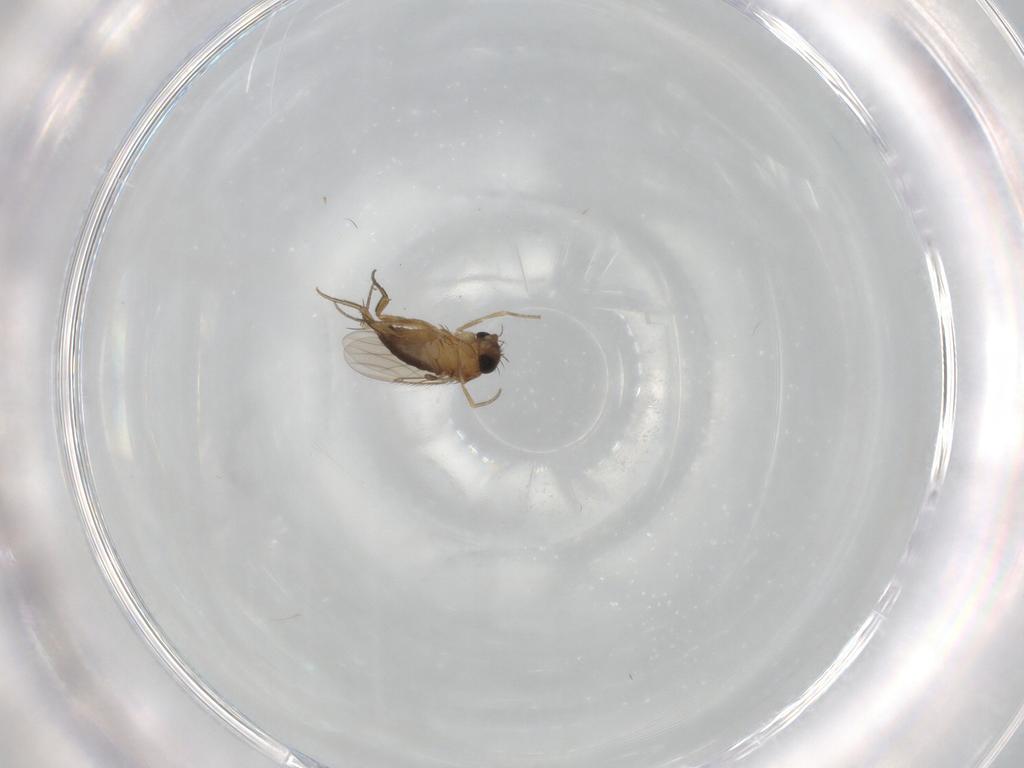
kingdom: Animalia
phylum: Arthropoda
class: Insecta
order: Diptera
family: Phoridae
